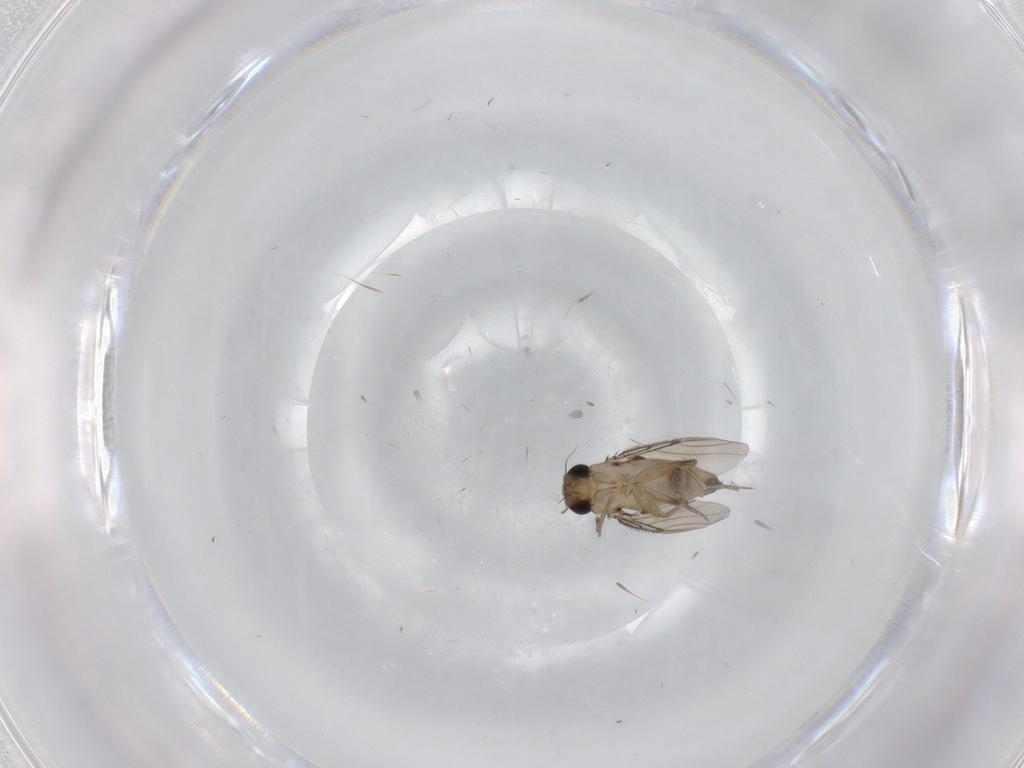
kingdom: Animalia
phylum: Arthropoda
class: Insecta
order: Diptera
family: Phoridae
